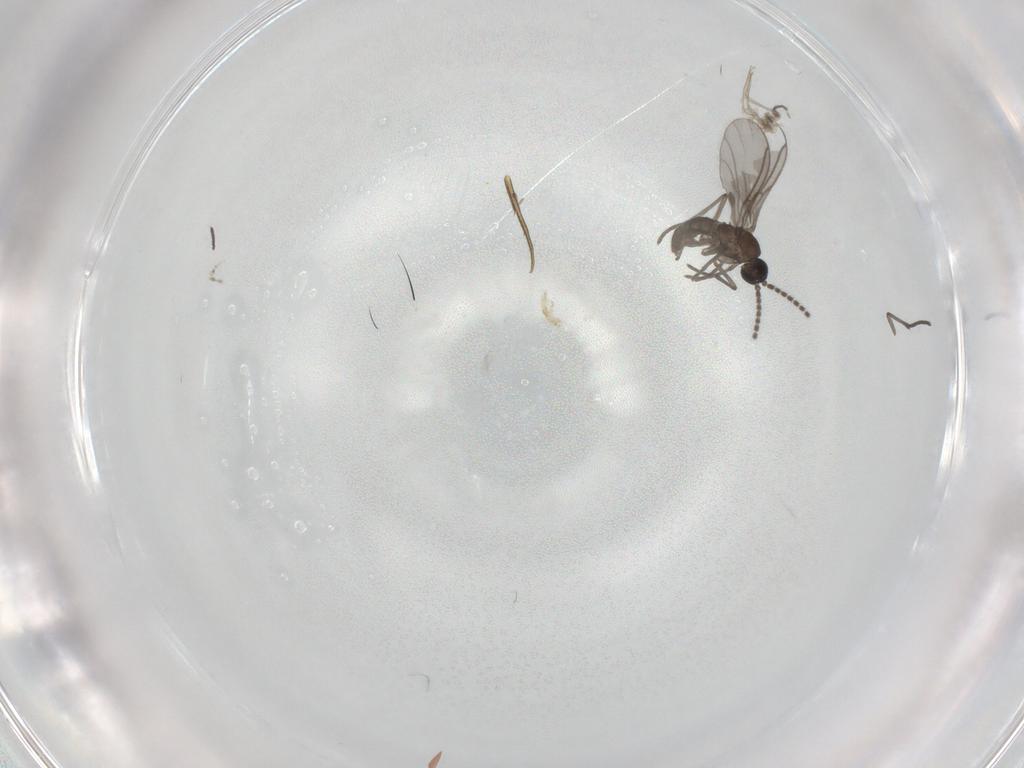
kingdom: Animalia
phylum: Arthropoda
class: Insecta
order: Diptera
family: Cecidomyiidae
